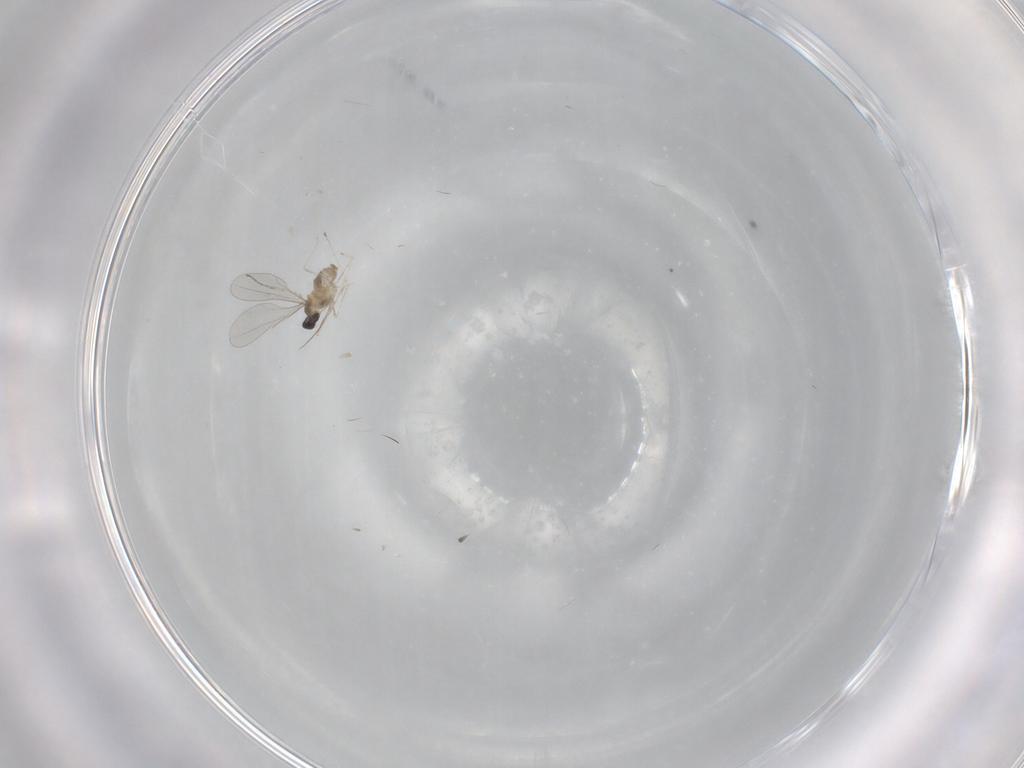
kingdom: Animalia
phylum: Arthropoda
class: Insecta
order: Diptera
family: Cecidomyiidae
